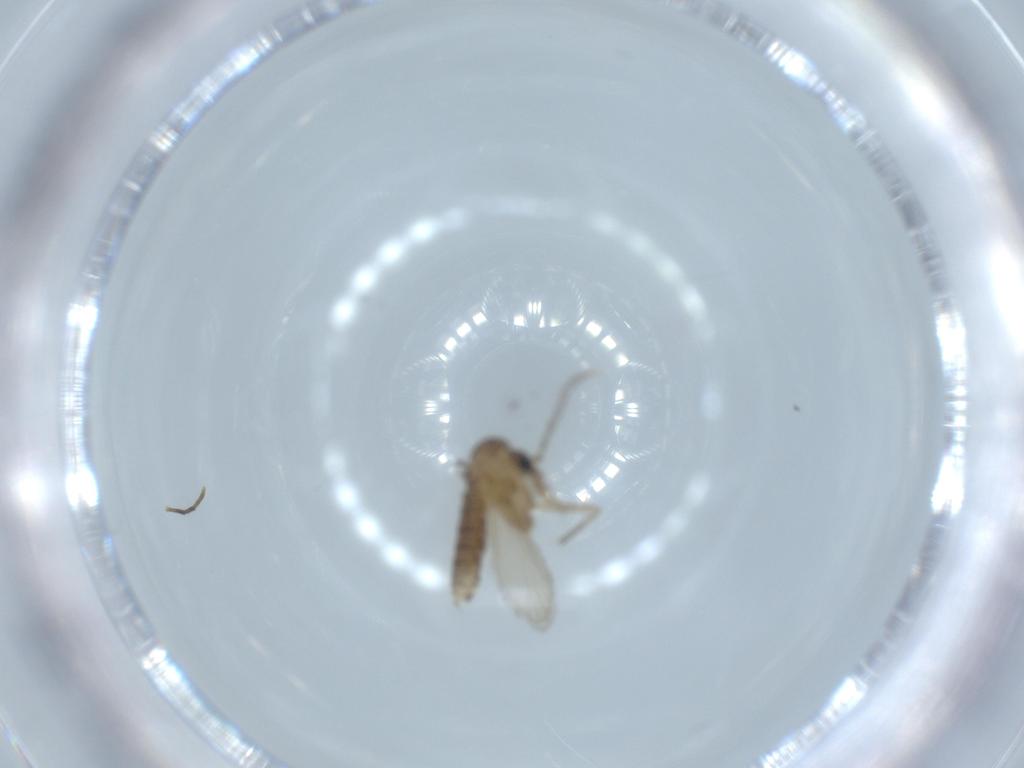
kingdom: Animalia
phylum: Arthropoda
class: Insecta
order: Diptera
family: Psychodidae
